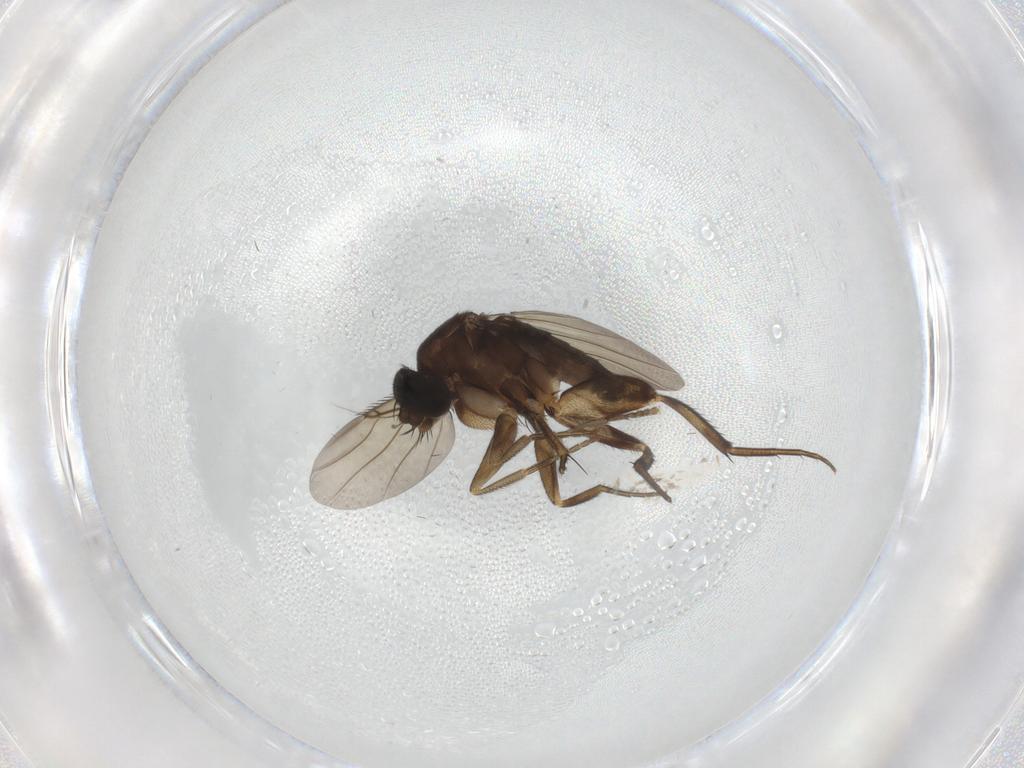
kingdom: Animalia
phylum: Arthropoda
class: Insecta
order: Diptera
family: Phoridae
